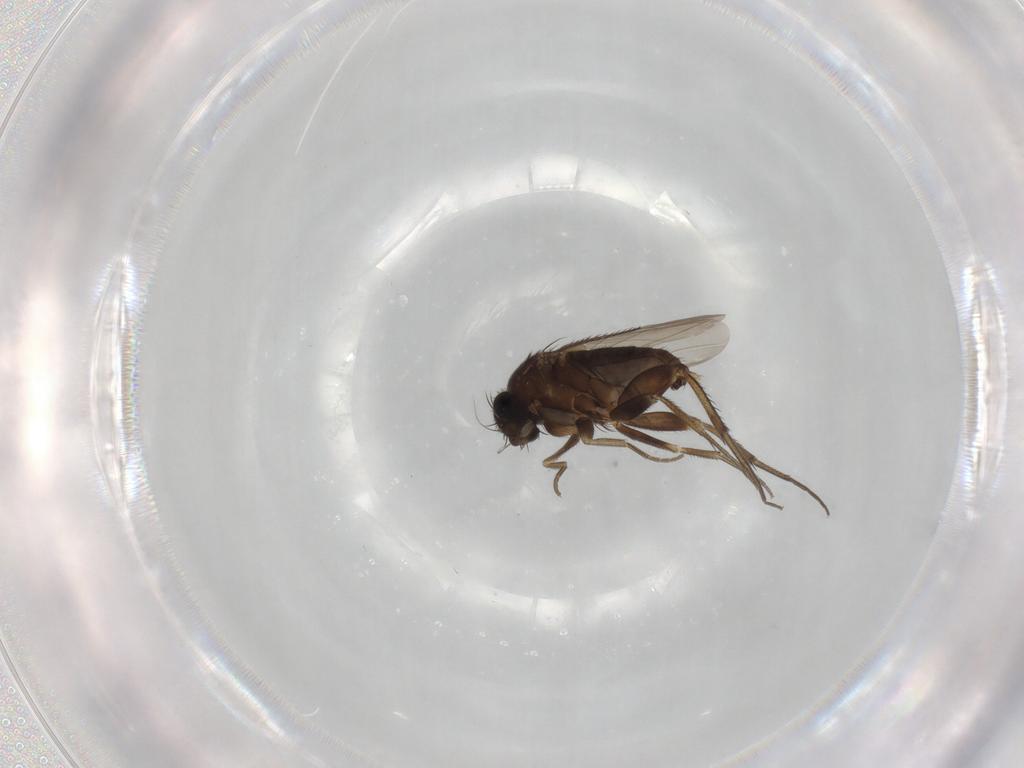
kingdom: Animalia
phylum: Arthropoda
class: Insecta
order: Diptera
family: Phoridae
